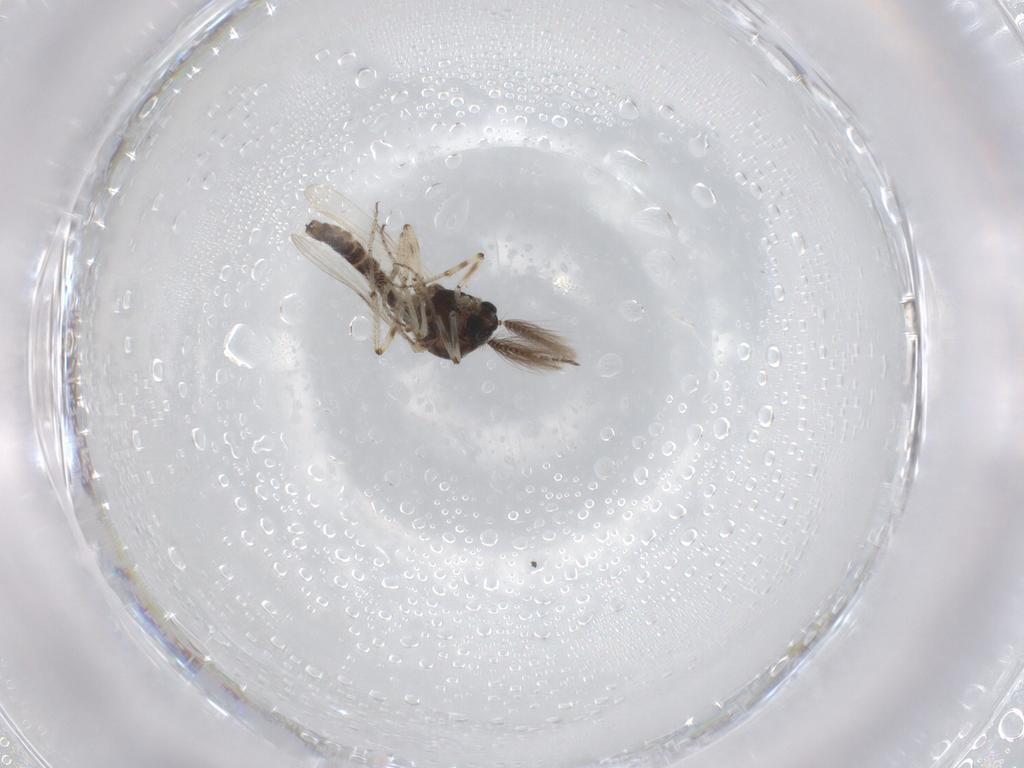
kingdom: Animalia
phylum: Arthropoda
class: Insecta
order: Diptera
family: Ceratopogonidae
